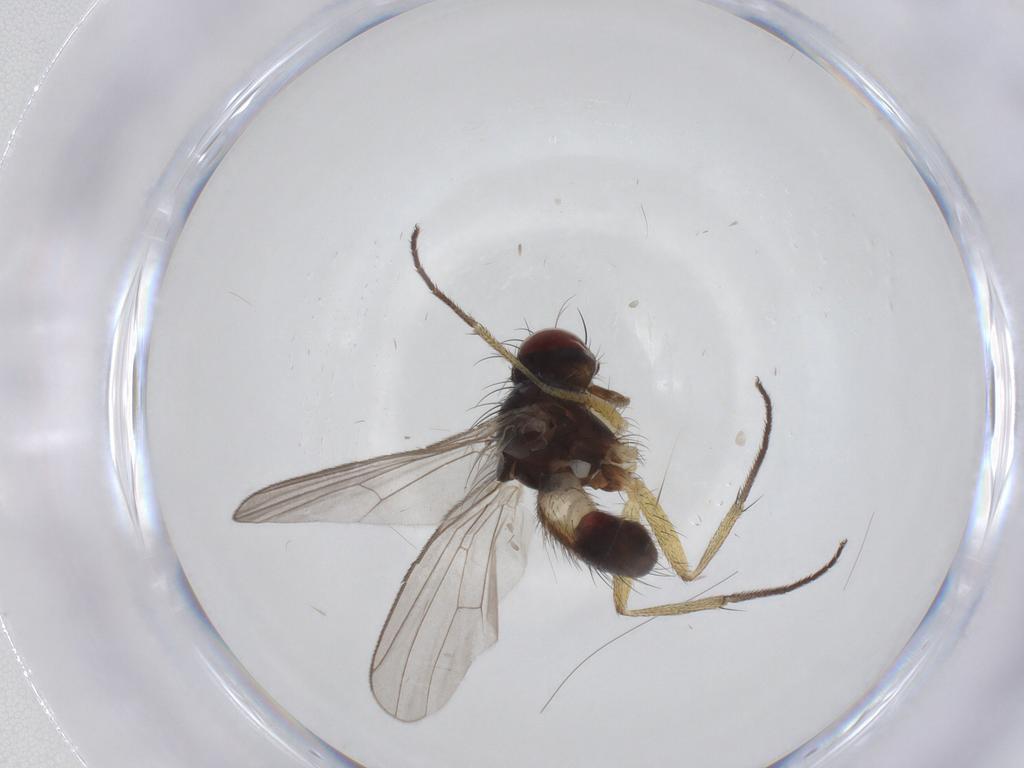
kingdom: Animalia
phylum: Arthropoda
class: Insecta
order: Diptera
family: Muscidae
